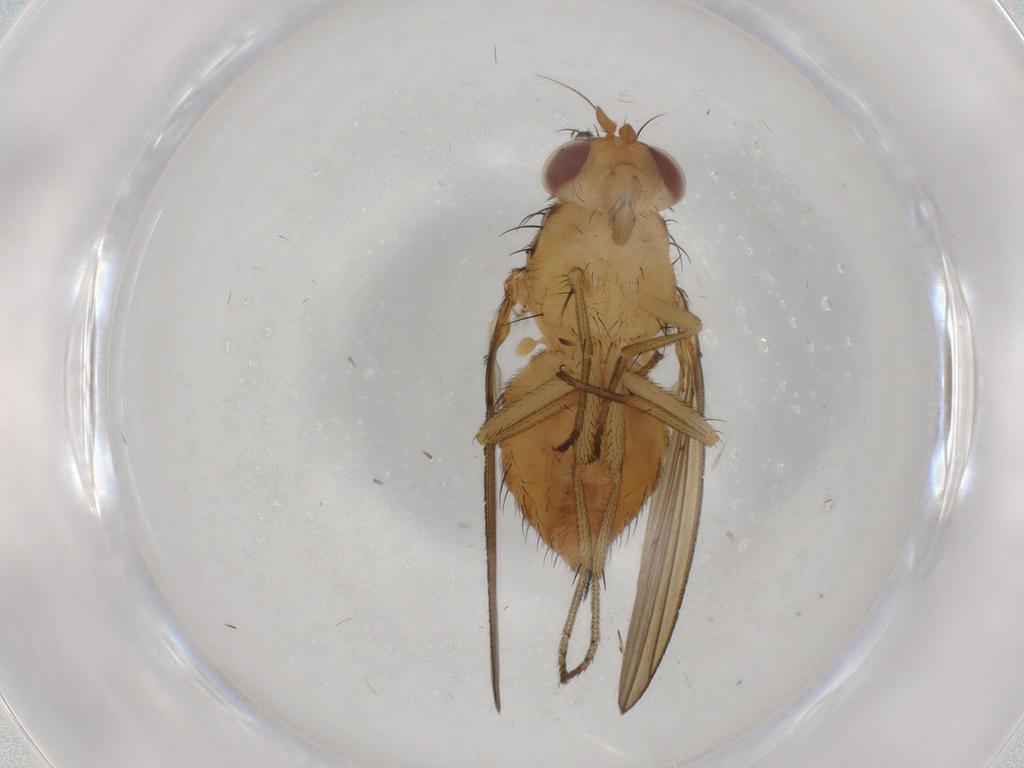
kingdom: Animalia
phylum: Arthropoda
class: Insecta
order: Diptera
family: Lauxaniidae
